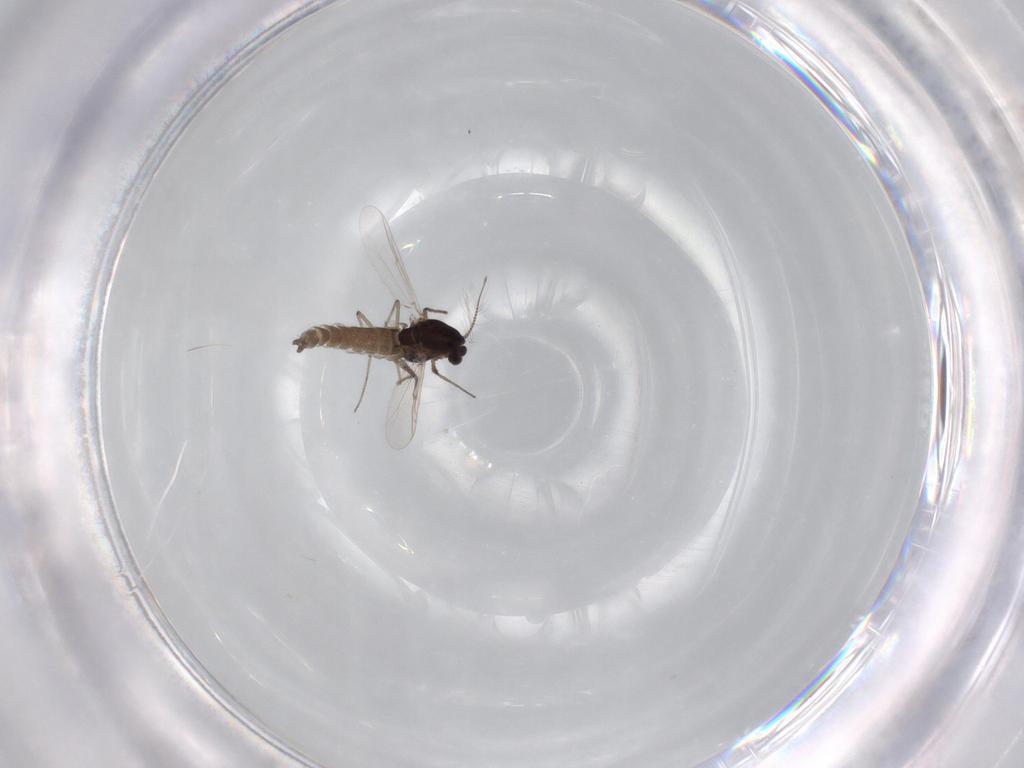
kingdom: Animalia
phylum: Arthropoda
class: Insecta
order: Diptera
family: Chironomidae
